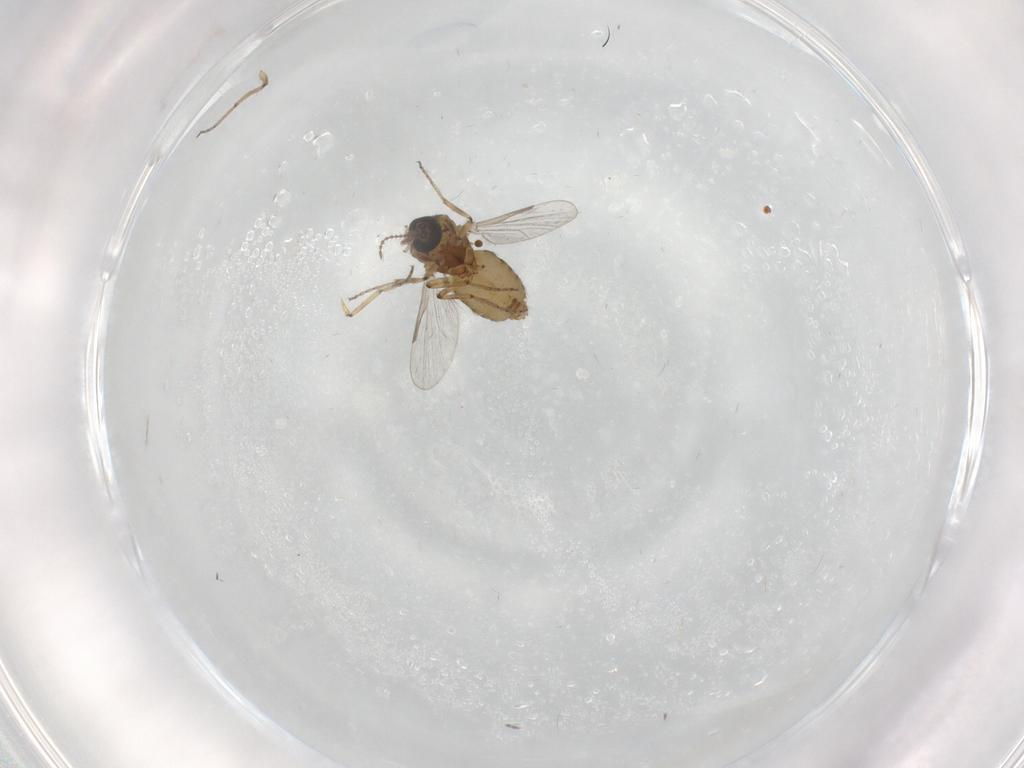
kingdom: Animalia
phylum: Arthropoda
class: Insecta
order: Diptera
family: Ceratopogonidae
